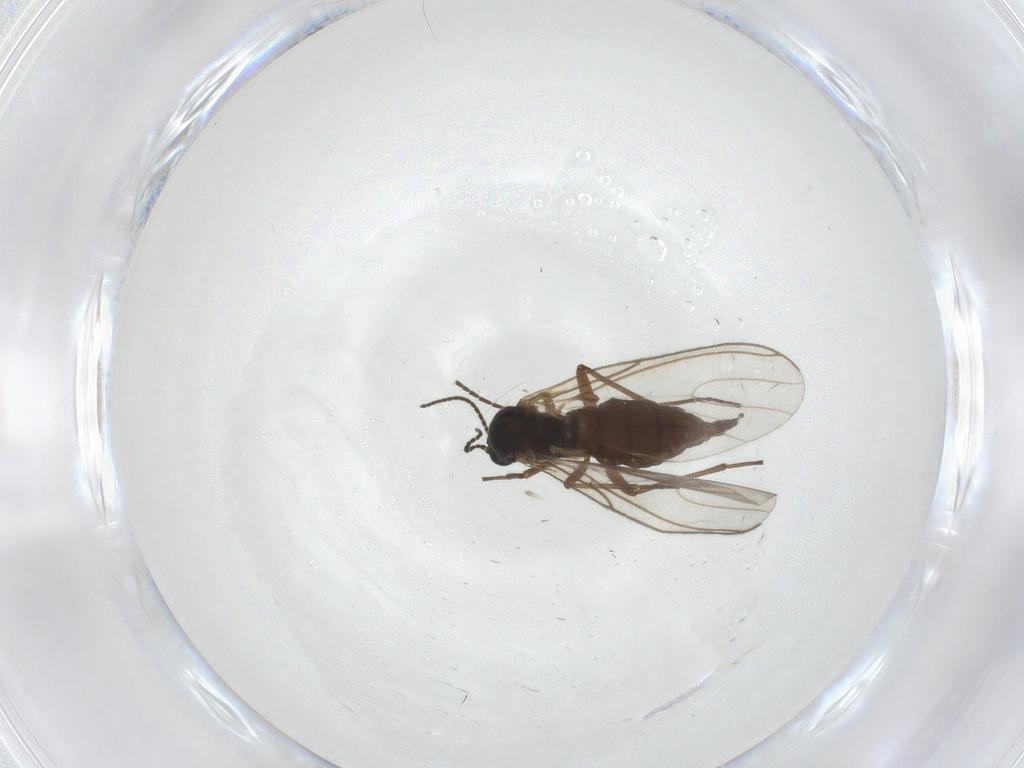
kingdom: Animalia
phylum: Arthropoda
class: Insecta
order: Diptera
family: Sciaridae
